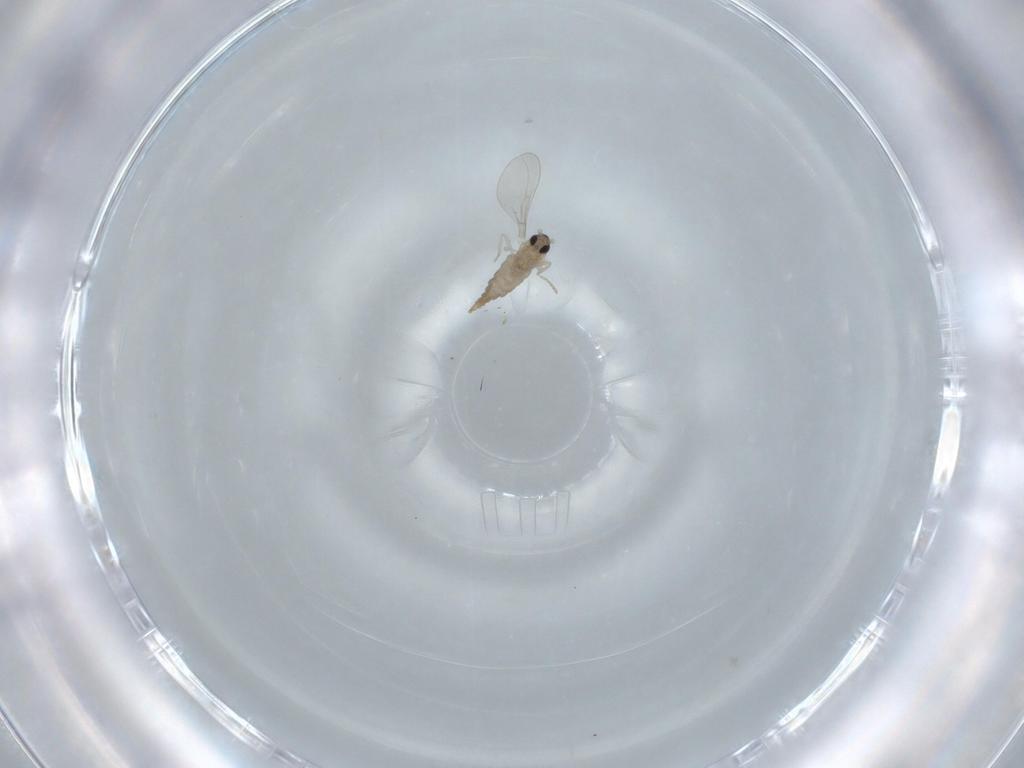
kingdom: Animalia
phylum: Arthropoda
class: Insecta
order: Diptera
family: Cecidomyiidae
